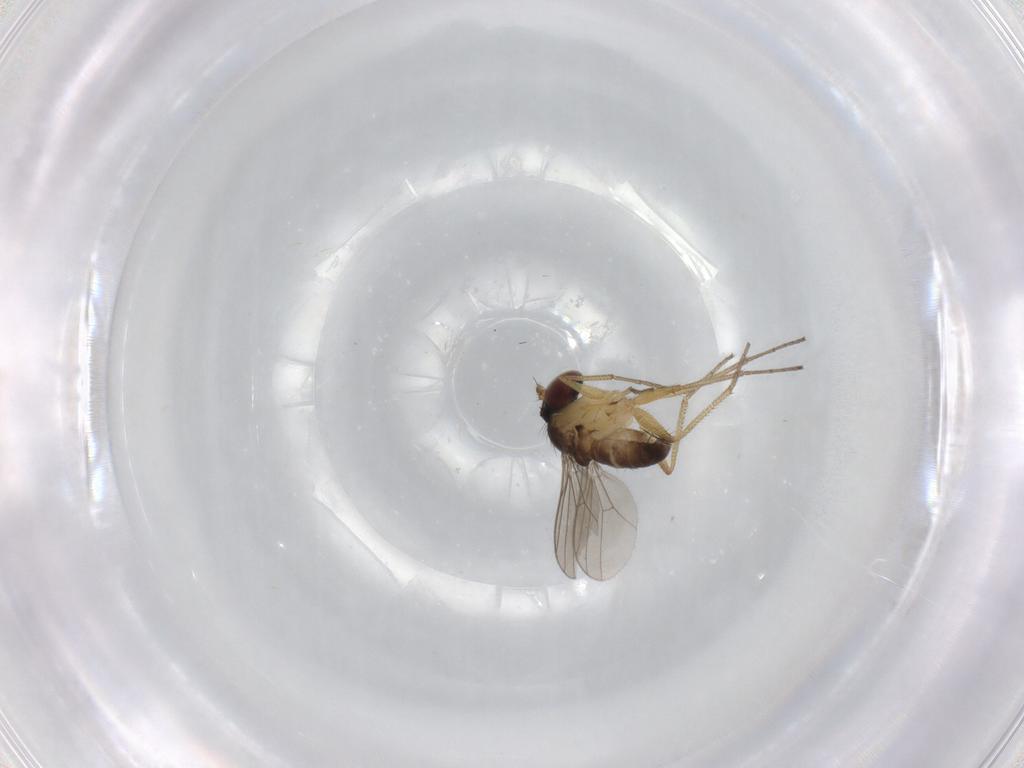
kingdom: Animalia
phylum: Arthropoda
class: Insecta
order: Diptera
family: Dolichopodidae
